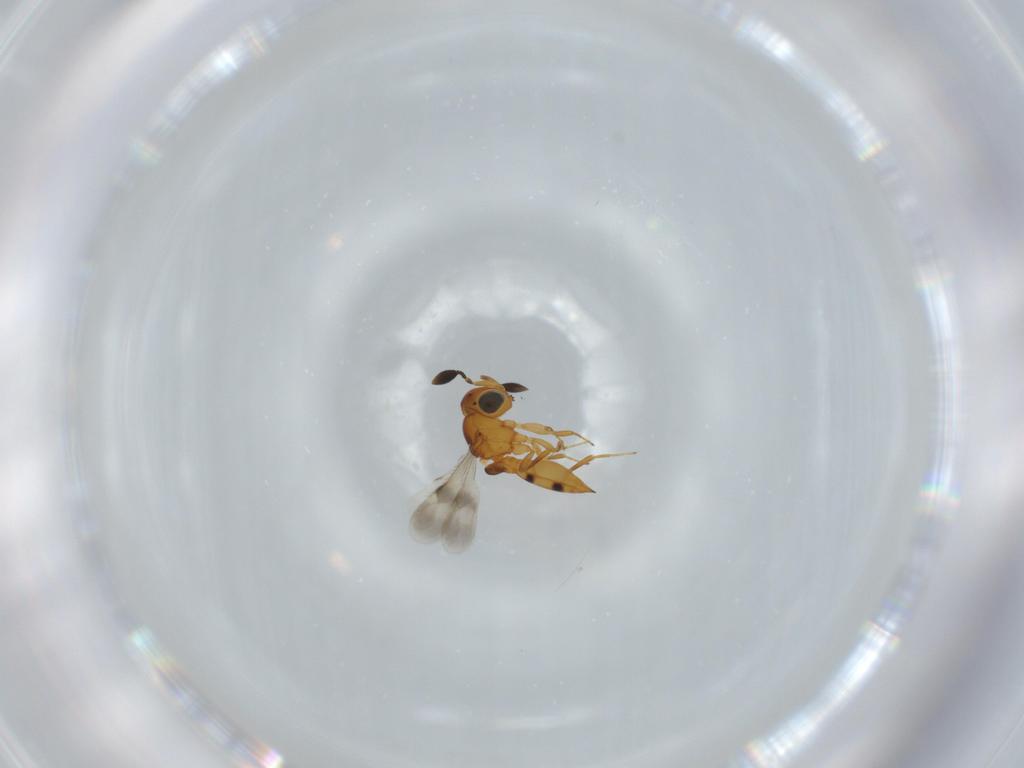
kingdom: Animalia
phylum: Arthropoda
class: Insecta
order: Hymenoptera
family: Scelionidae
